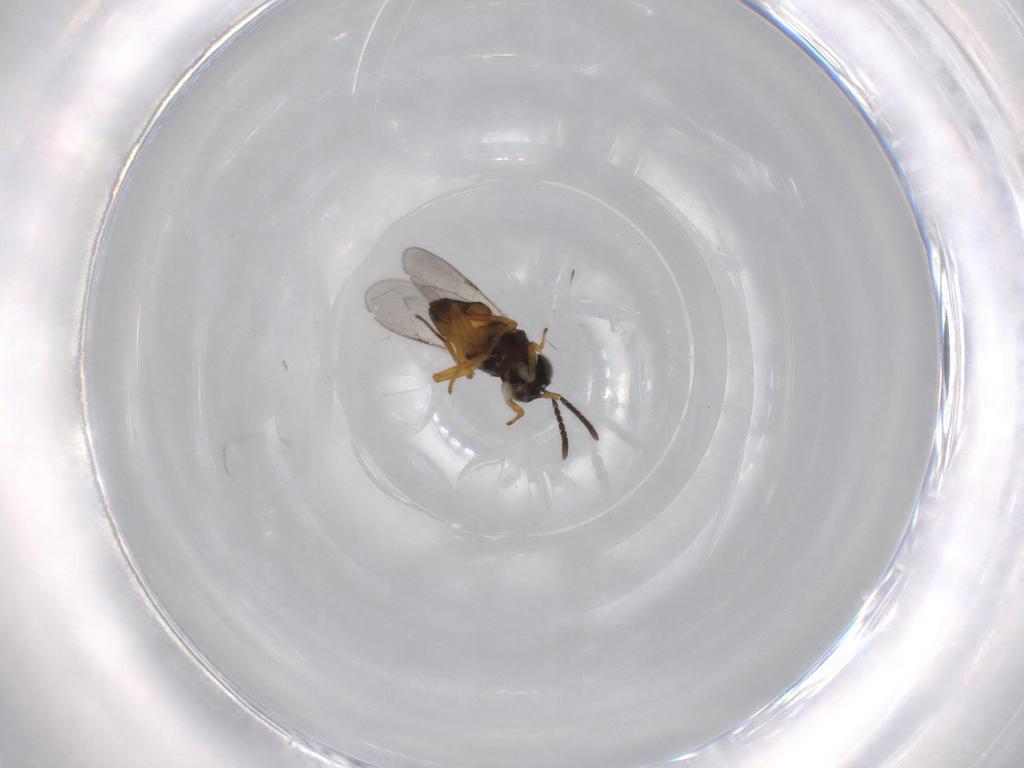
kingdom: Animalia
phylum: Arthropoda
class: Insecta
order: Hymenoptera
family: Encyrtidae
